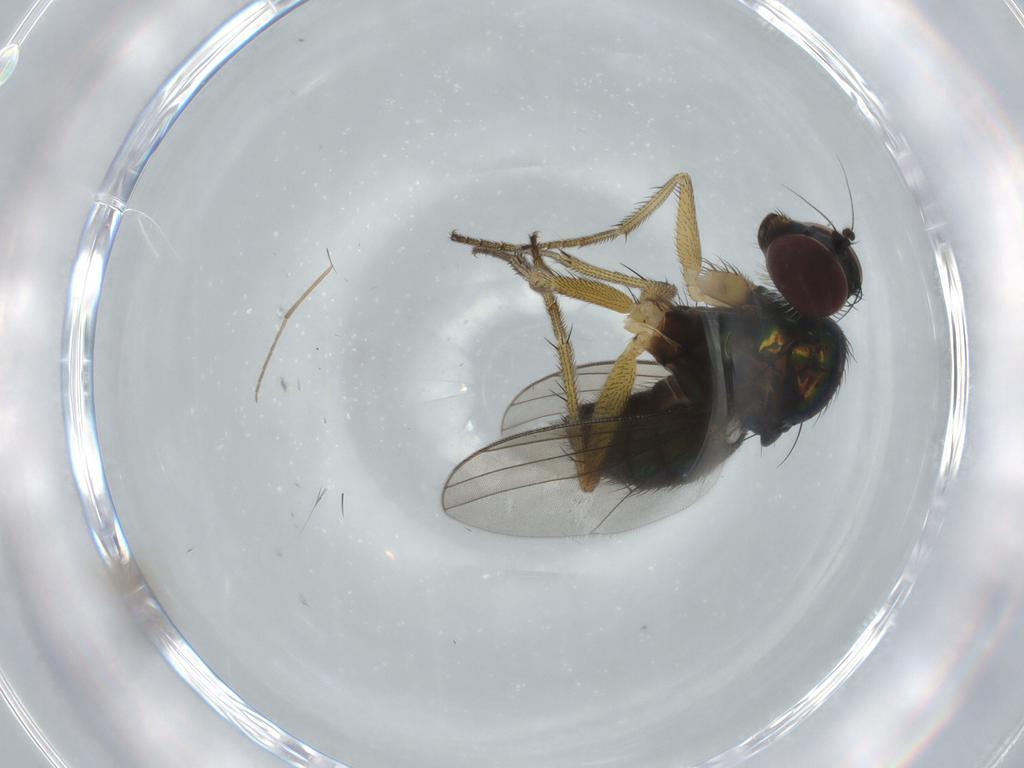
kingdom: Animalia
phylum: Arthropoda
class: Insecta
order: Diptera
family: Dolichopodidae
